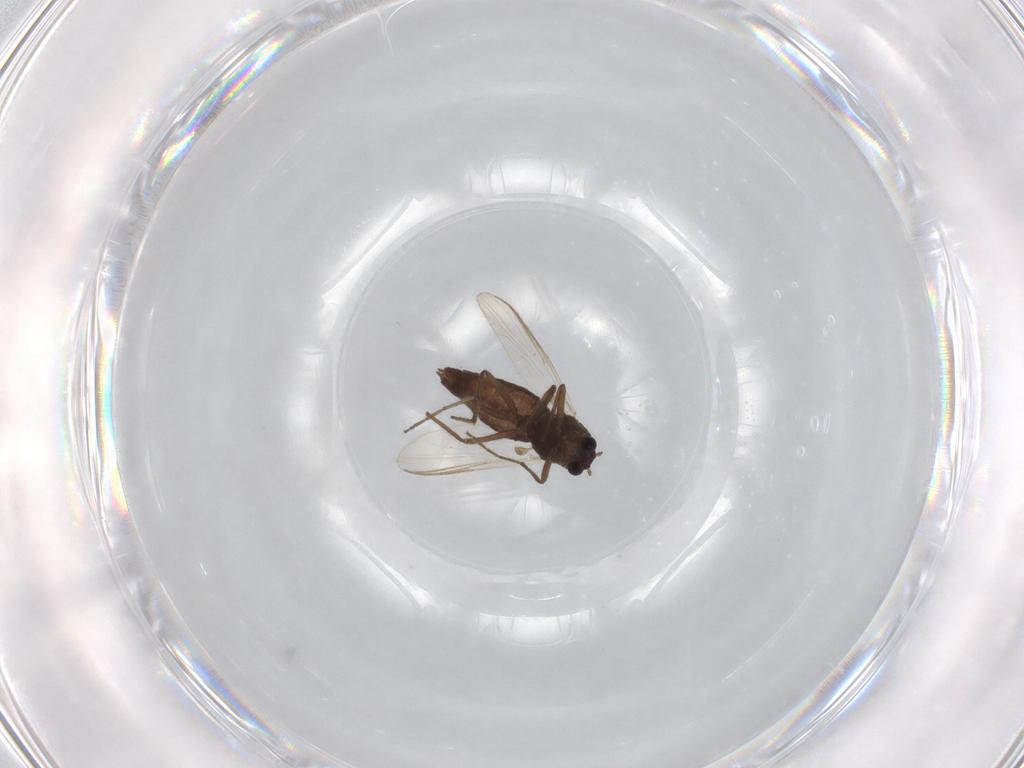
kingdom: Animalia
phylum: Arthropoda
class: Insecta
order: Diptera
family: Chironomidae
